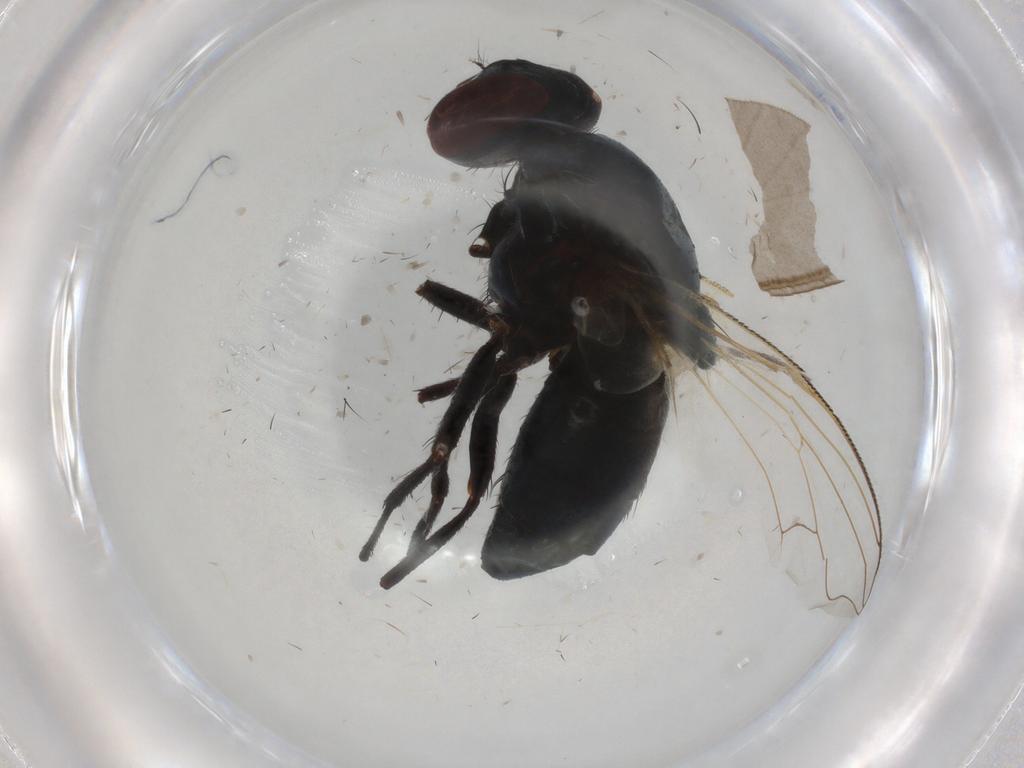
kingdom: Animalia
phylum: Arthropoda
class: Insecta
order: Diptera
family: Muscidae
